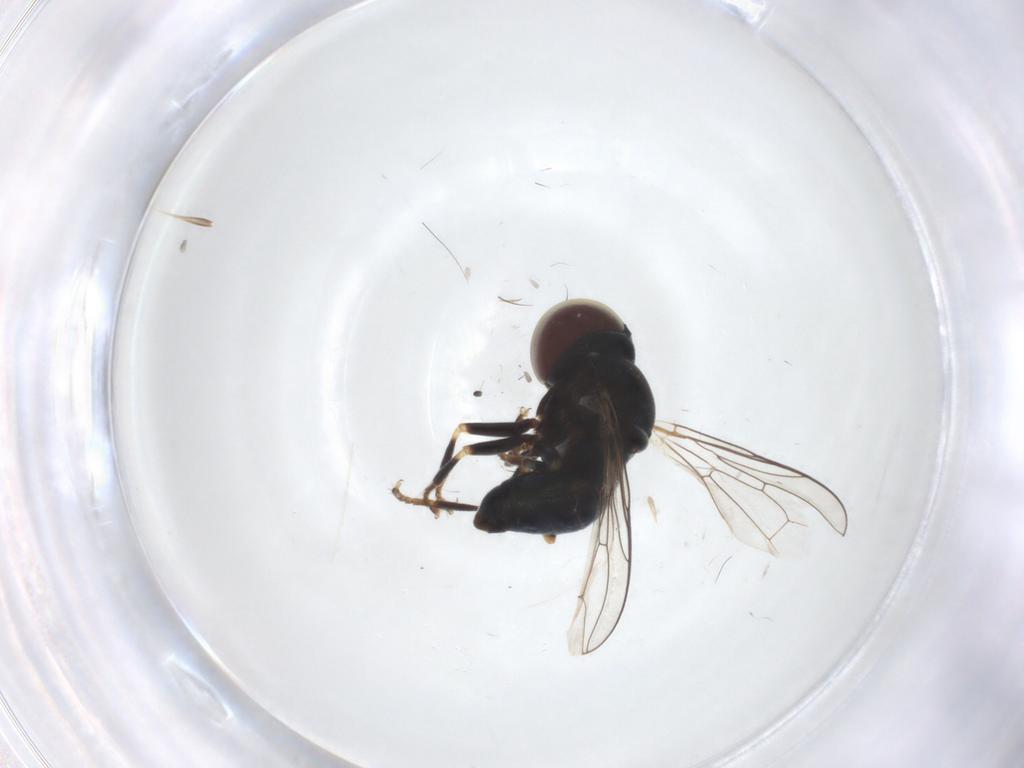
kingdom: Animalia
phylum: Arthropoda
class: Insecta
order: Diptera
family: Pipunculidae
